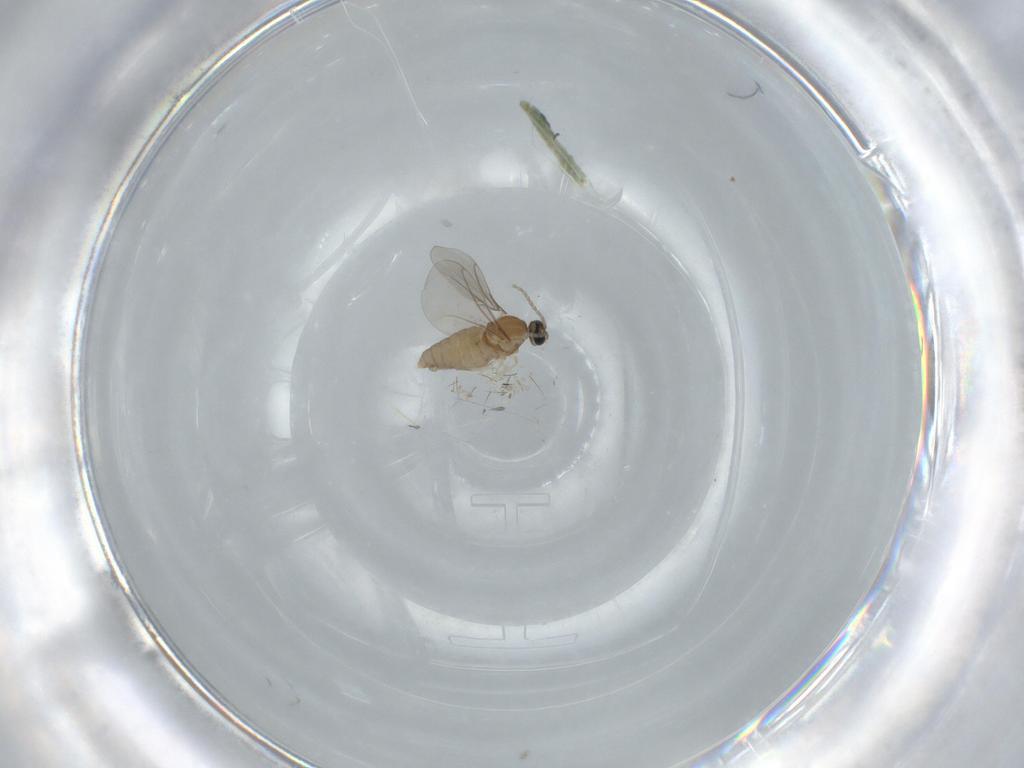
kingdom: Animalia
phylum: Arthropoda
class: Insecta
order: Diptera
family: Cecidomyiidae
